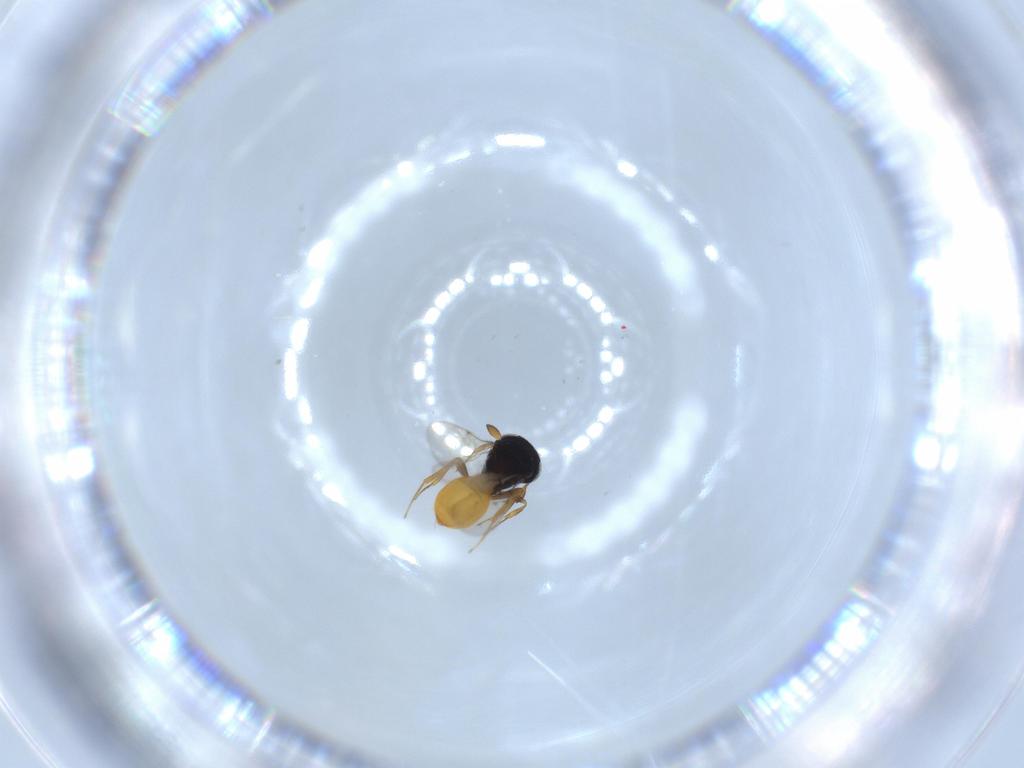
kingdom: Animalia
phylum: Arthropoda
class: Insecta
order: Hymenoptera
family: Scelionidae
